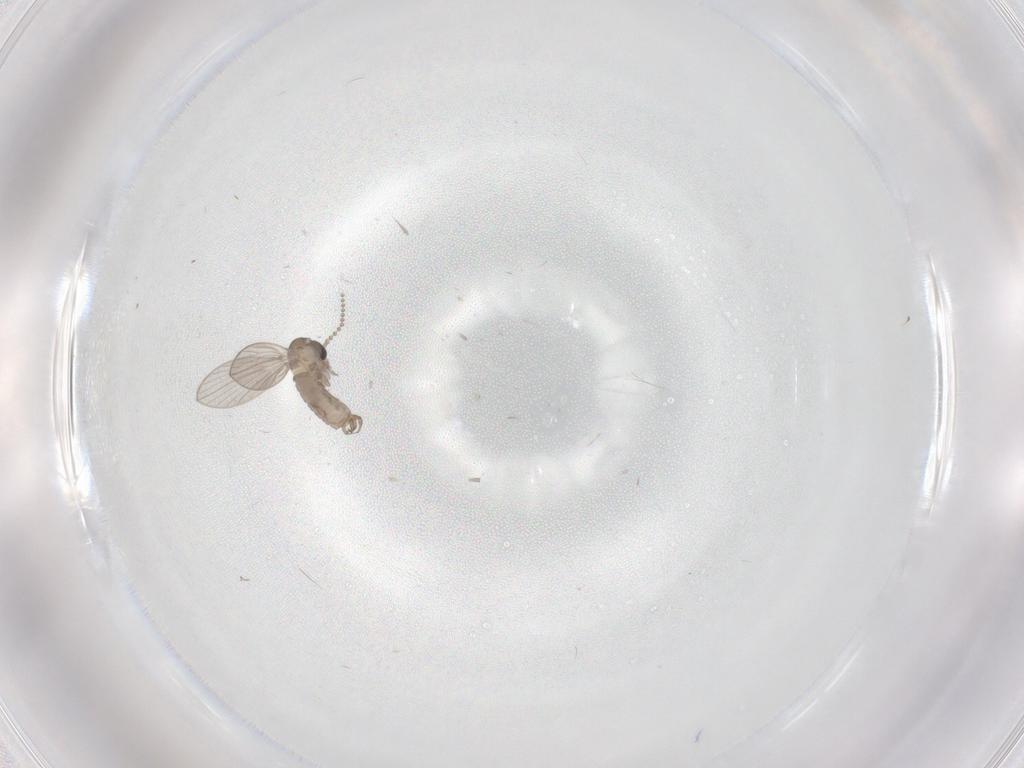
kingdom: Animalia
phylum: Arthropoda
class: Insecta
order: Diptera
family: Psychodidae
